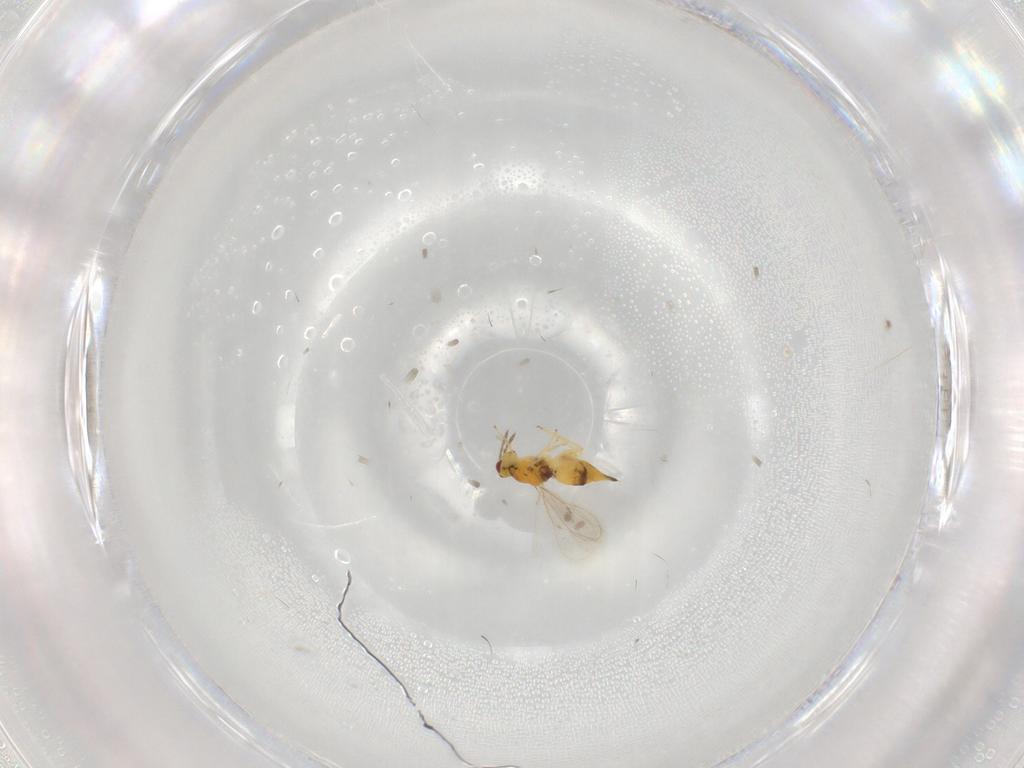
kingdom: Animalia
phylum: Arthropoda
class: Insecta
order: Hymenoptera
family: Eulophidae
